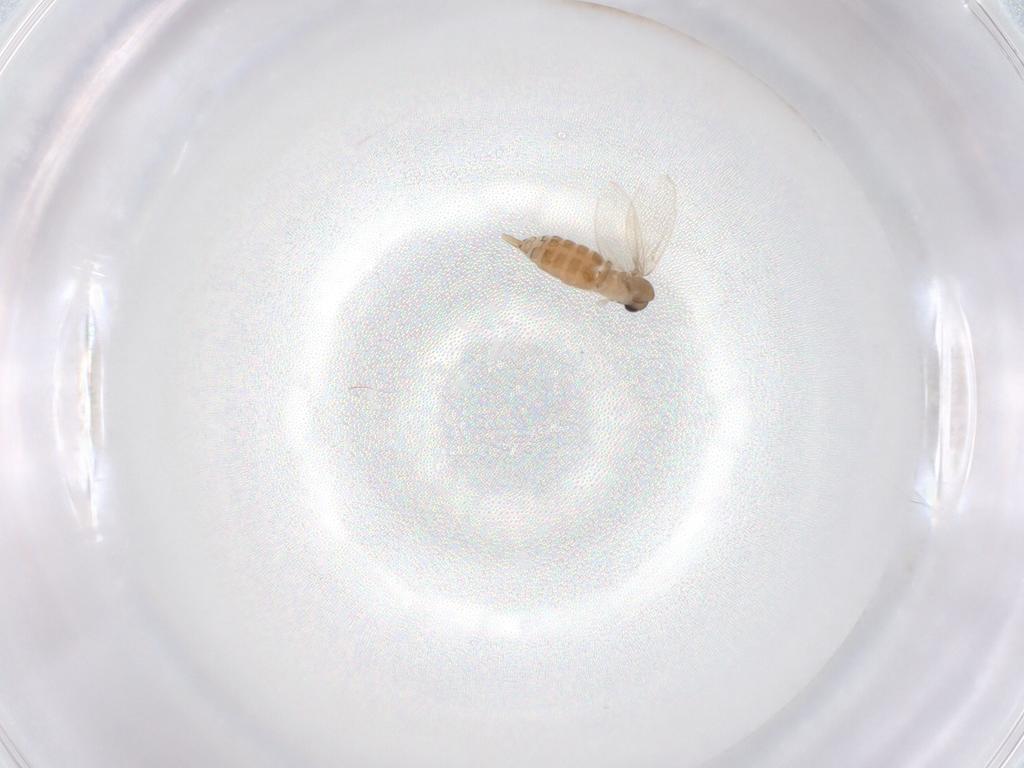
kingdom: Animalia
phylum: Arthropoda
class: Insecta
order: Diptera
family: Psychodidae
